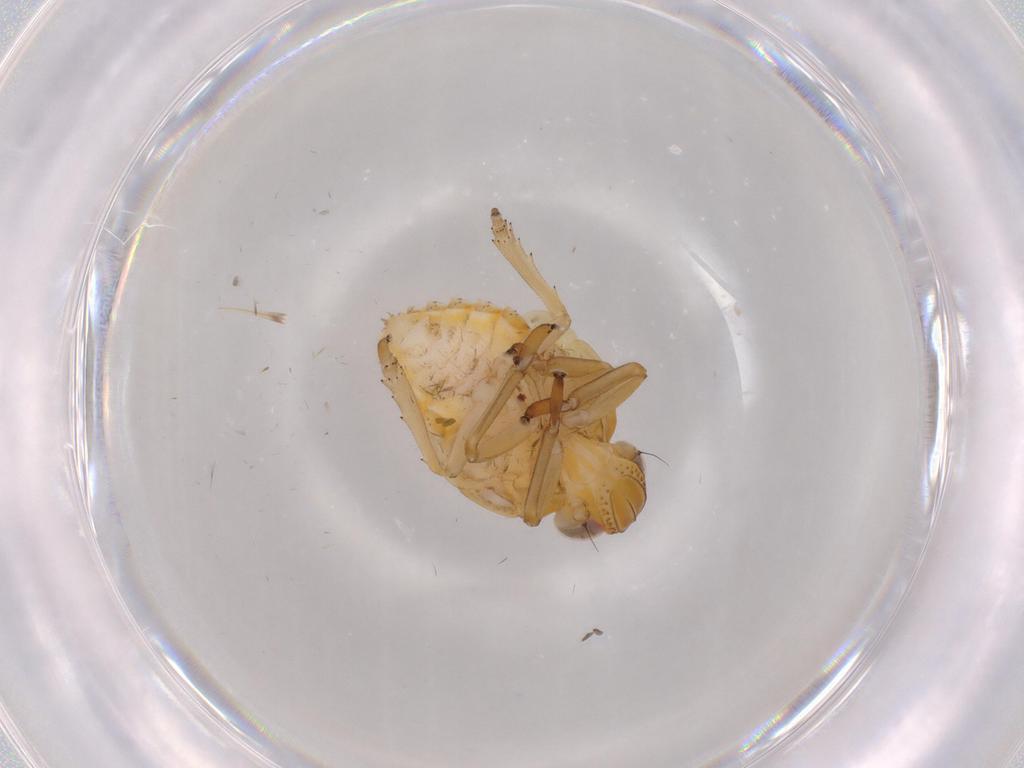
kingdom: Animalia
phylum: Arthropoda
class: Insecta
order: Hemiptera
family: Issidae
